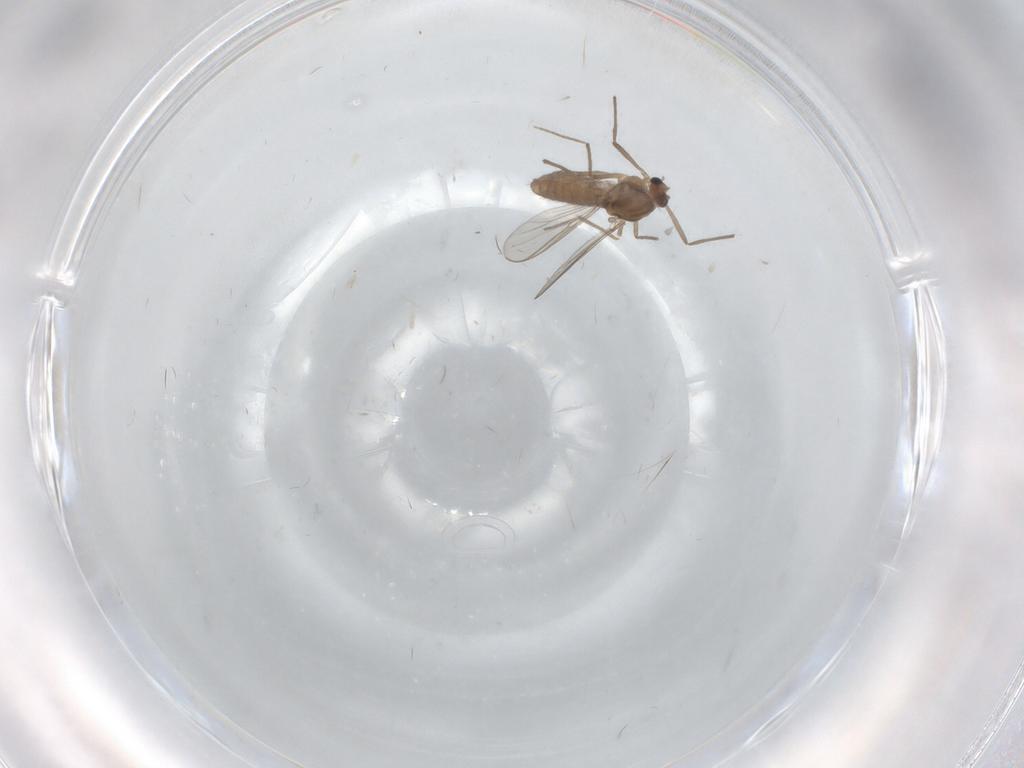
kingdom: Animalia
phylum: Arthropoda
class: Insecta
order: Diptera
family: Chironomidae
